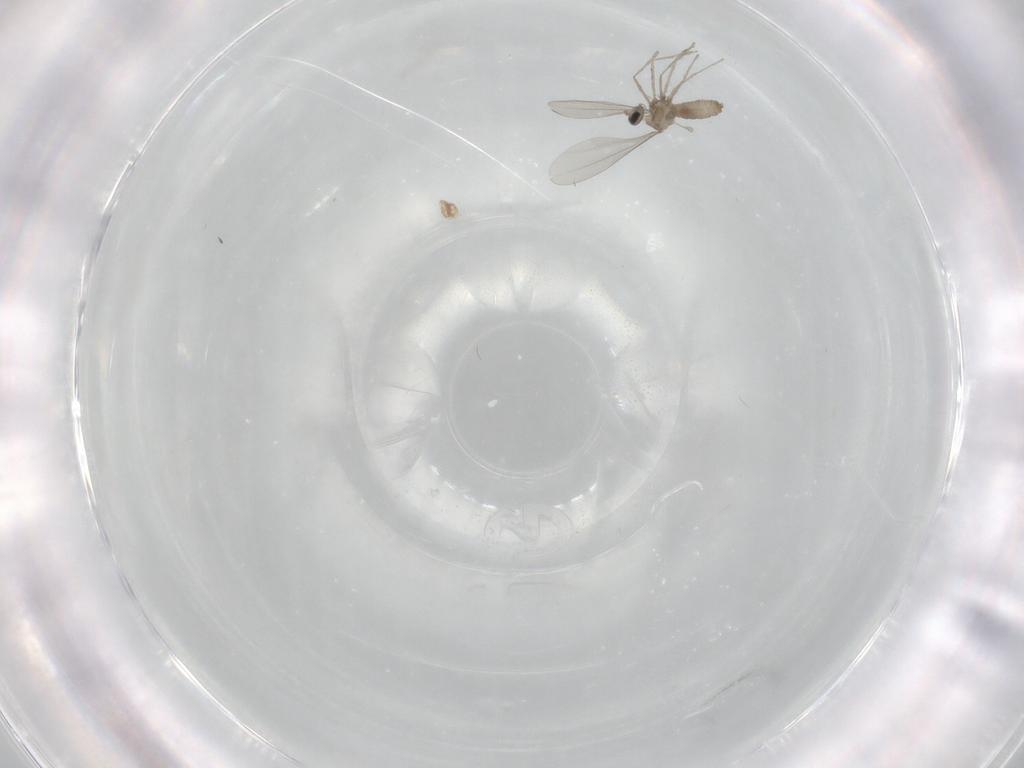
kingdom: Animalia
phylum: Arthropoda
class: Insecta
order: Diptera
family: Cecidomyiidae
